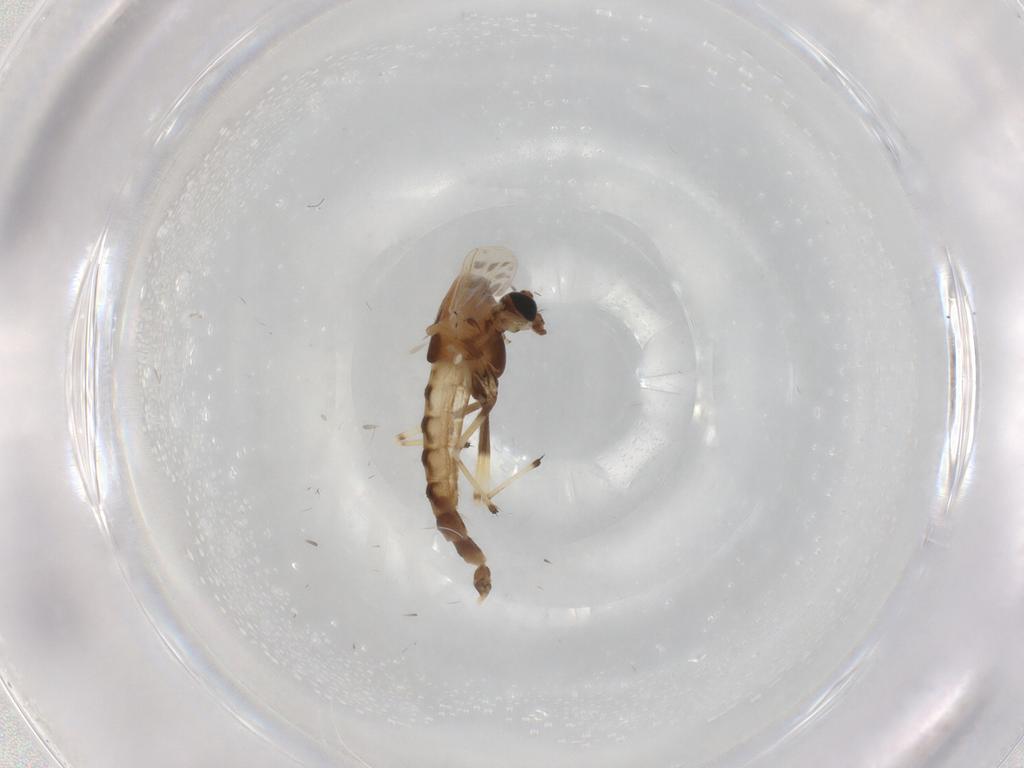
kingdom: Animalia
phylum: Arthropoda
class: Insecta
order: Diptera
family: Chironomidae
